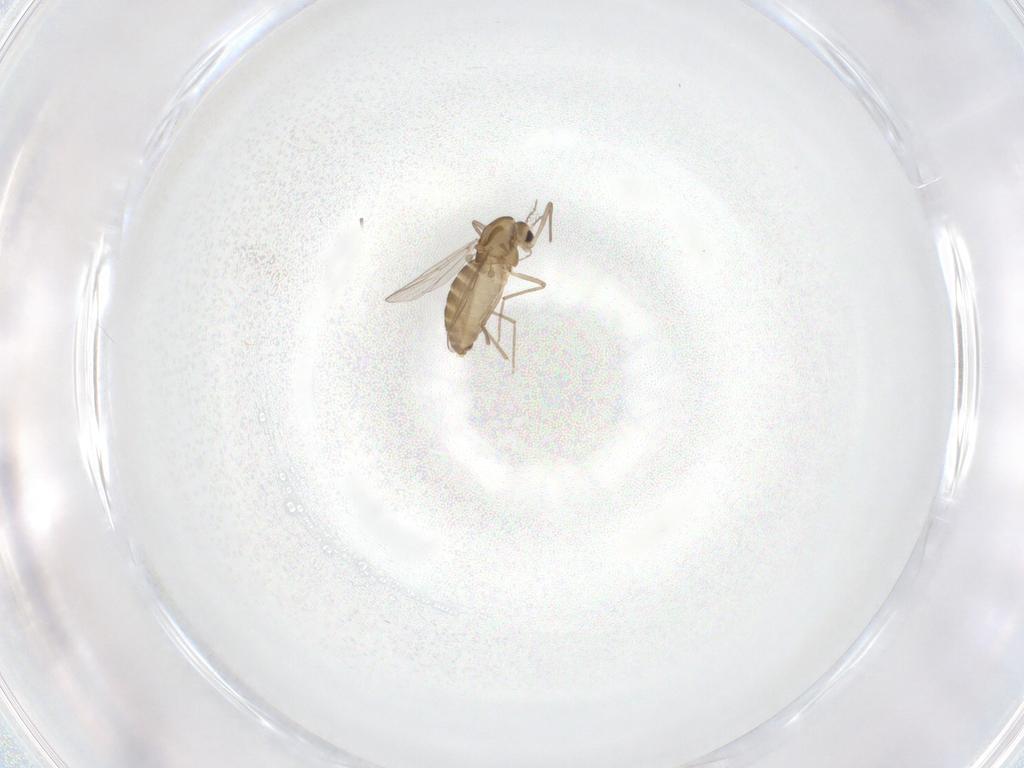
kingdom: Animalia
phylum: Arthropoda
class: Insecta
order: Diptera
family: Chironomidae
